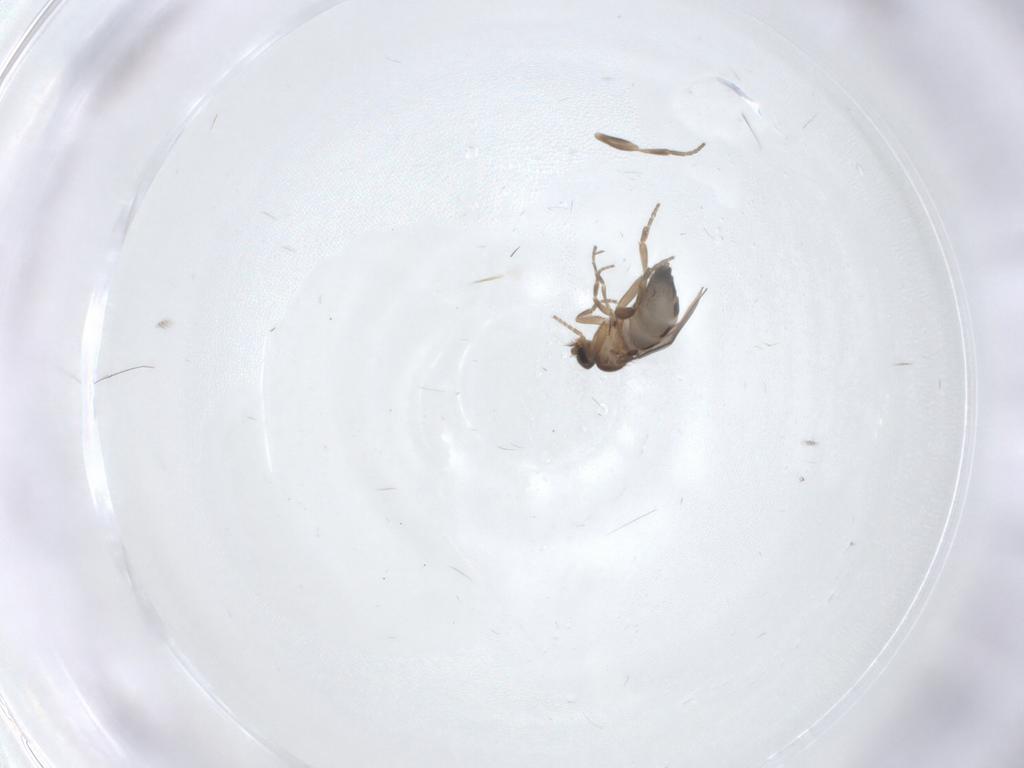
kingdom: Animalia
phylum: Arthropoda
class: Insecta
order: Diptera
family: Phoridae
